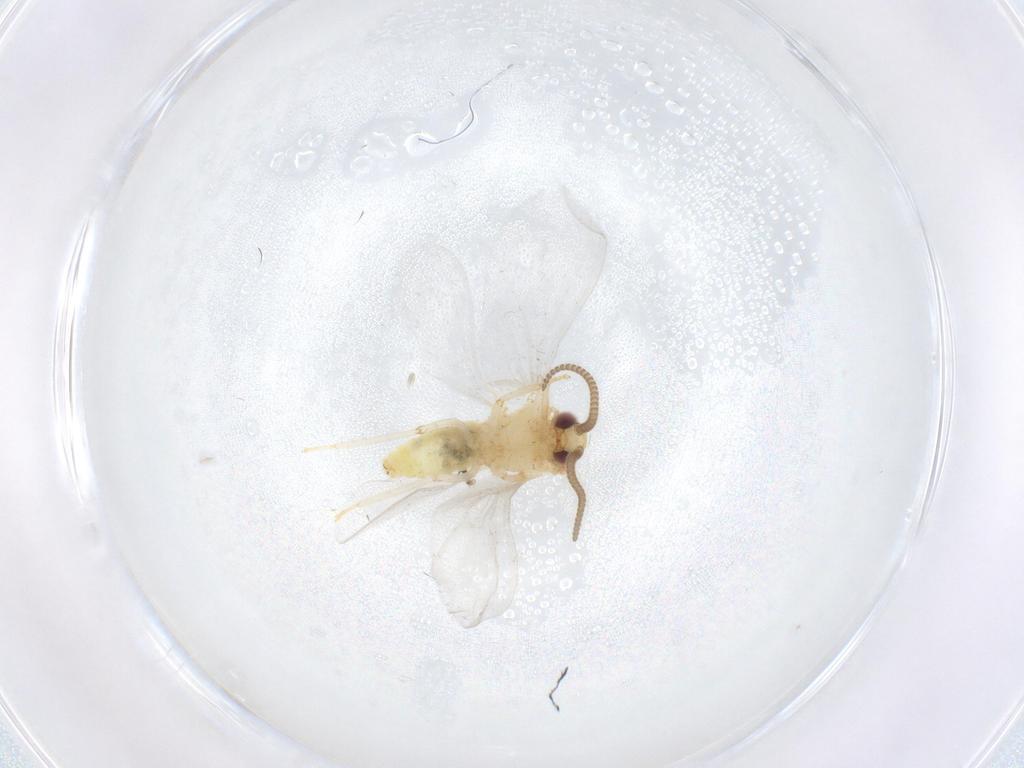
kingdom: Animalia
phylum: Arthropoda
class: Insecta
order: Neuroptera
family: Coniopterygidae
